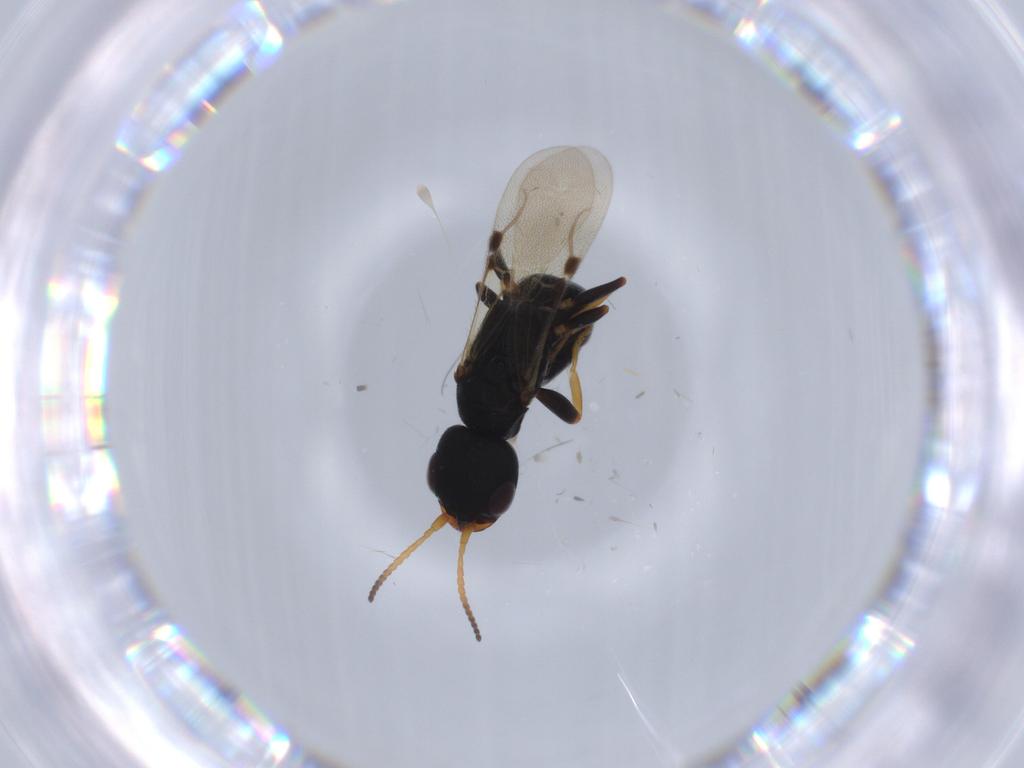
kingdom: Animalia
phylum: Arthropoda
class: Insecta
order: Hymenoptera
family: Bethylidae
